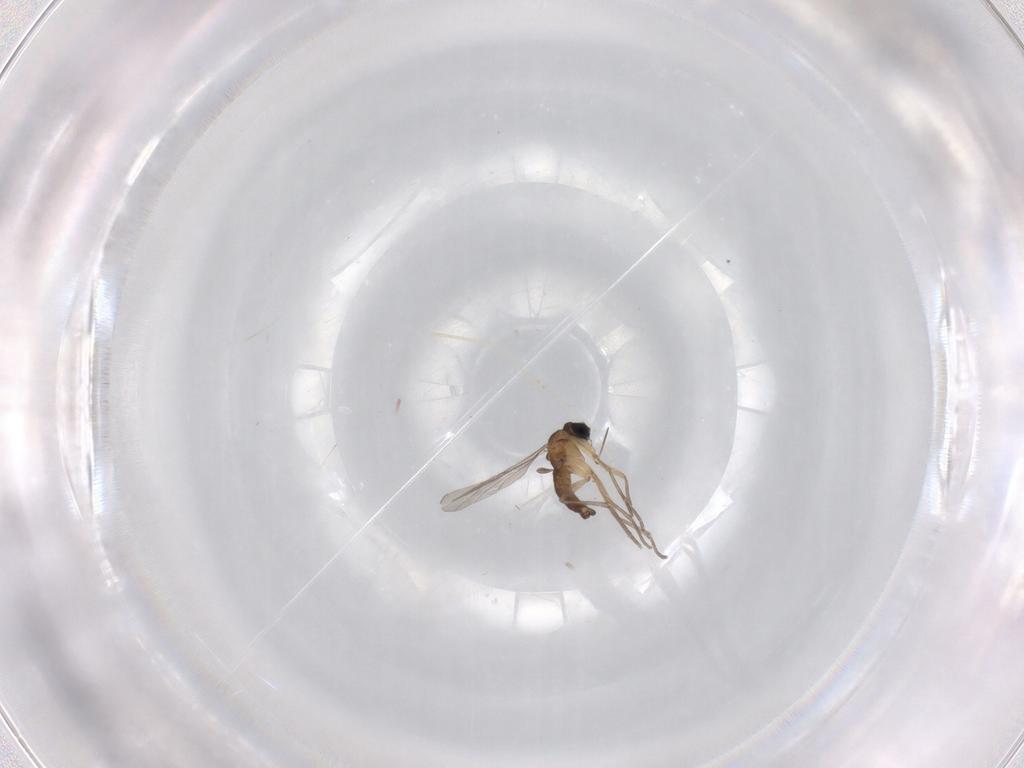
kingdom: Animalia
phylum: Arthropoda
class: Insecta
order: Diptera
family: Sciaridae
